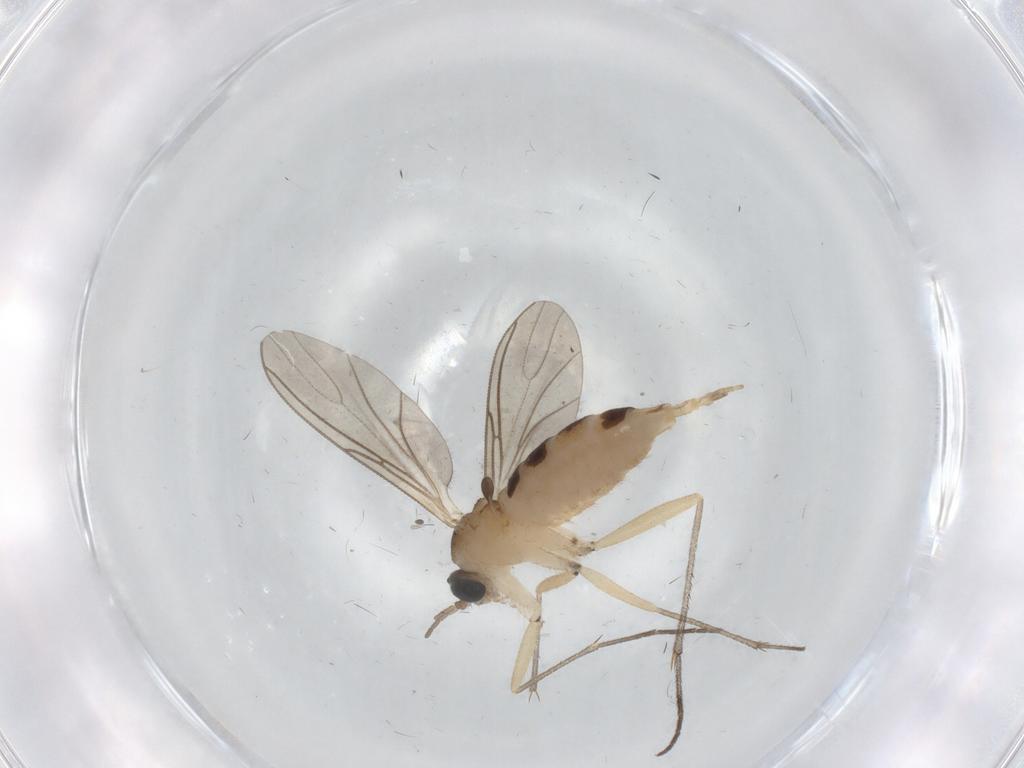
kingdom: Animalia
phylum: Arthropoda
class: Insecta
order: Diptera
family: Sciaridae
